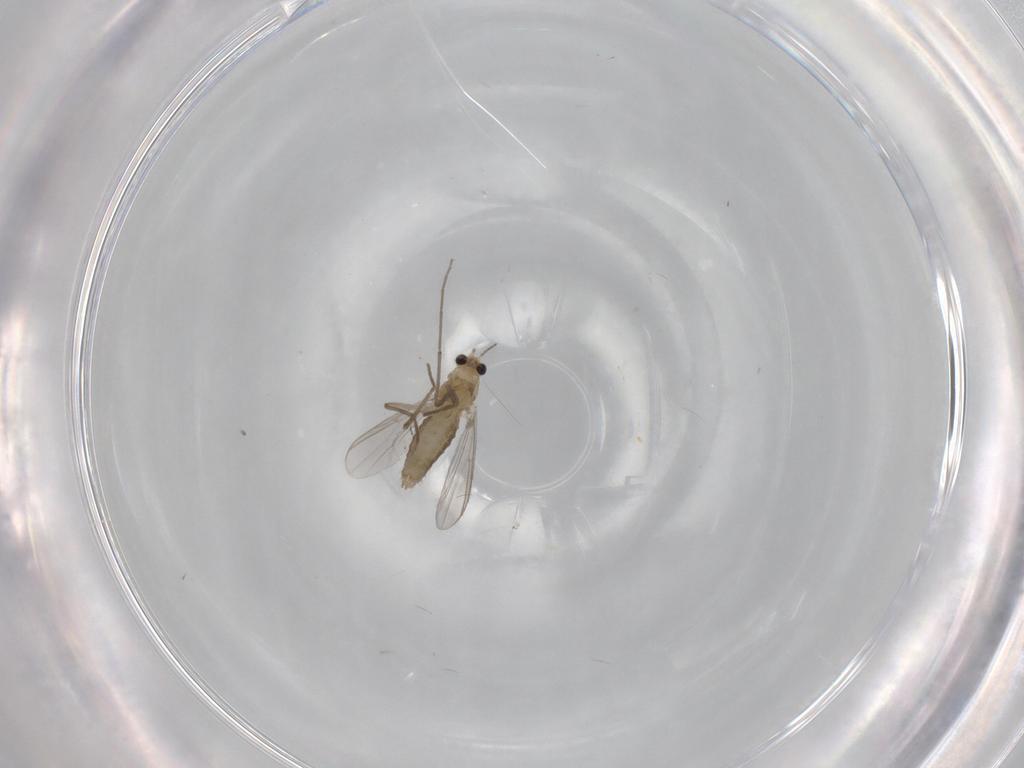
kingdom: Animalia
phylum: Arthropoda
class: Insecta
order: Diptera
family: Chironomidae
